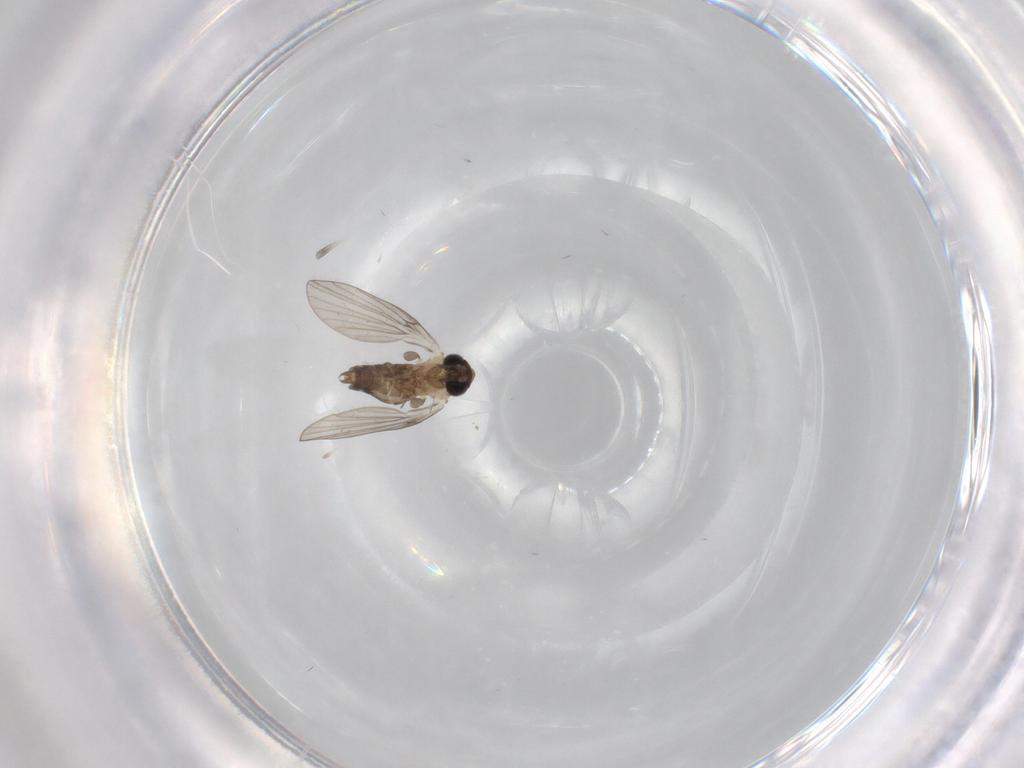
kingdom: Animalia
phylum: Arthropoda
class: Insecta
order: Diptera
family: Psychodidae
